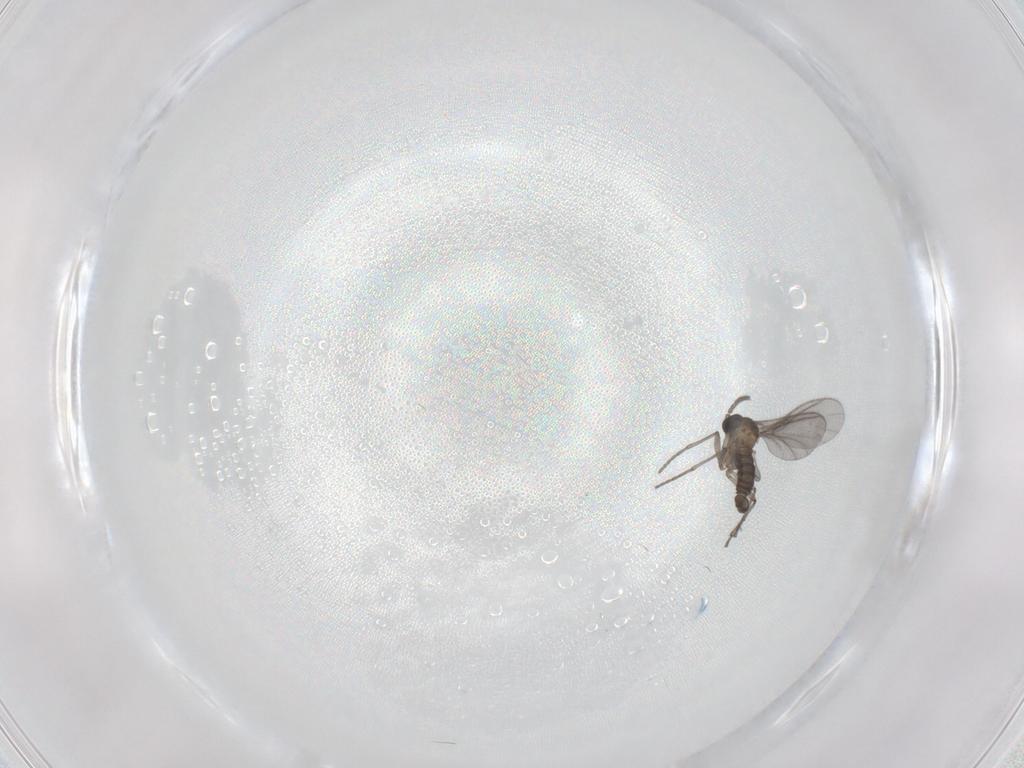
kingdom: Animalia
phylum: Arthropoda
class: Insecta
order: Diptera
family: Sciaridae
